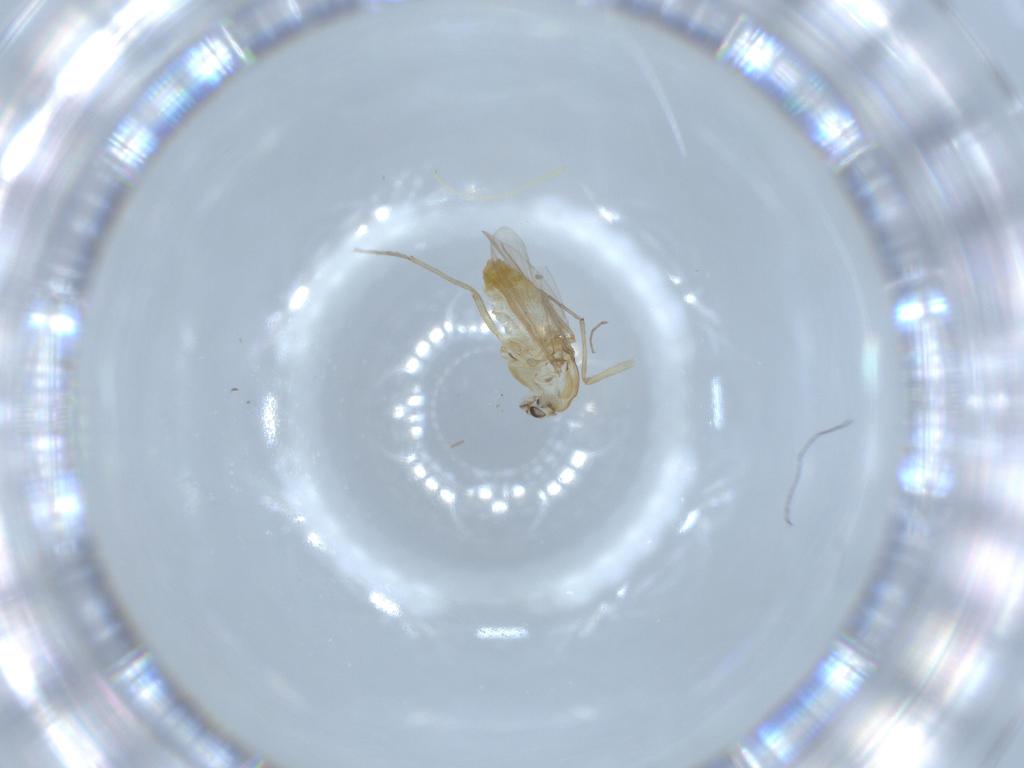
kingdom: Animalia
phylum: Arthropoda
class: Insecta
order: Diptera
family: Chironomidae
